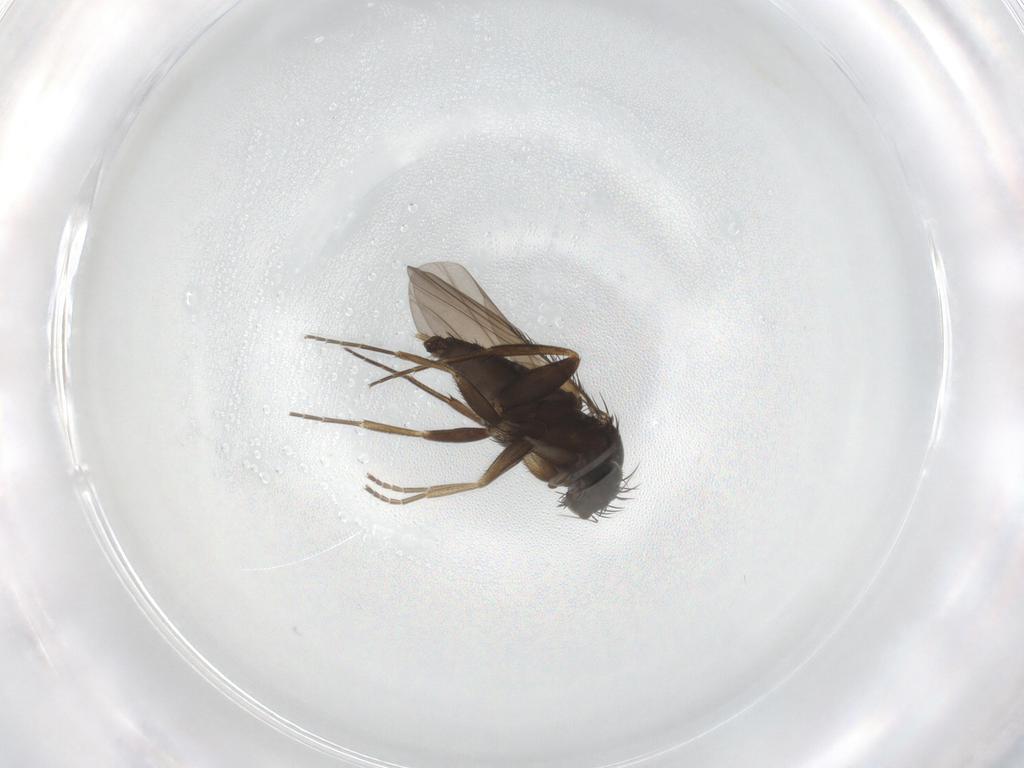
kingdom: Animalia
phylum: Arthropoda
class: Insecta
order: Diptera
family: Phoridae
